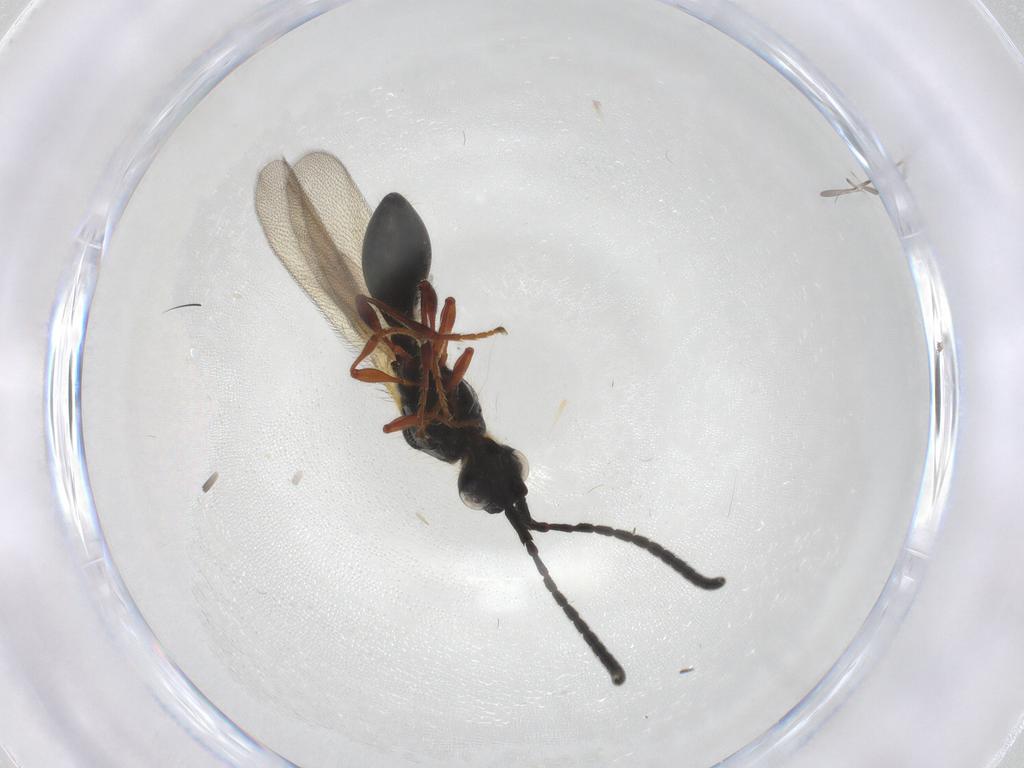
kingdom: Animalia
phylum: Arthropoda
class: Insecta
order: Hymenoptera
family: Diapriidae
